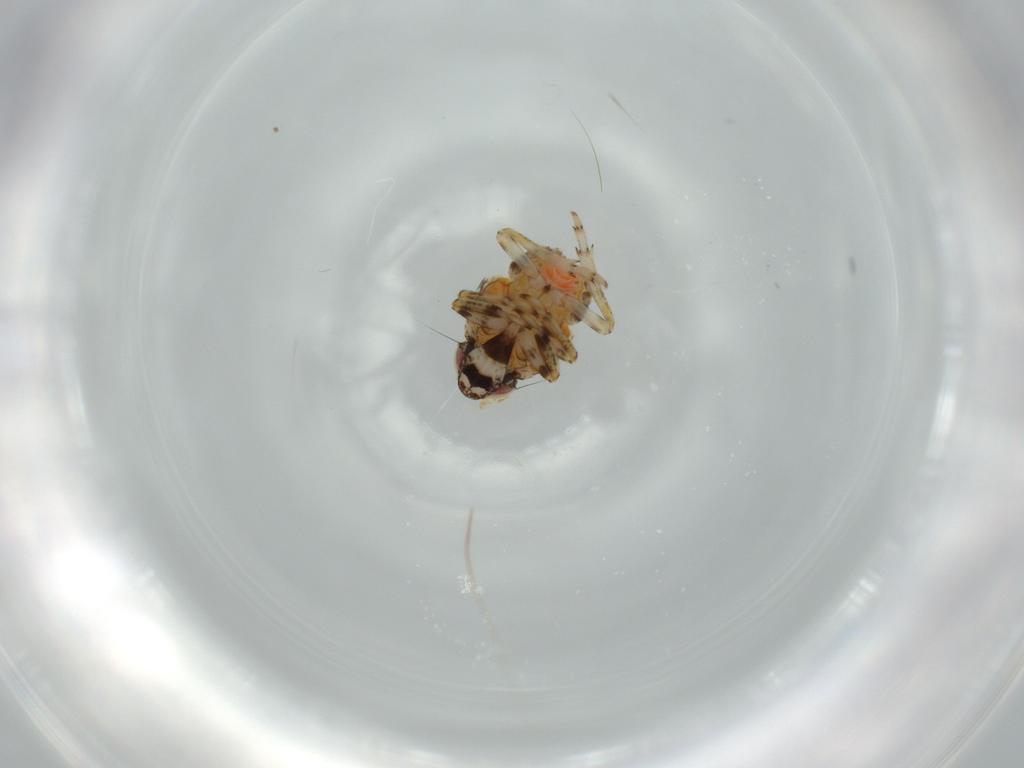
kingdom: Animalia
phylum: Arthropoda
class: Insecta
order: Hemiptera
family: Issidae
